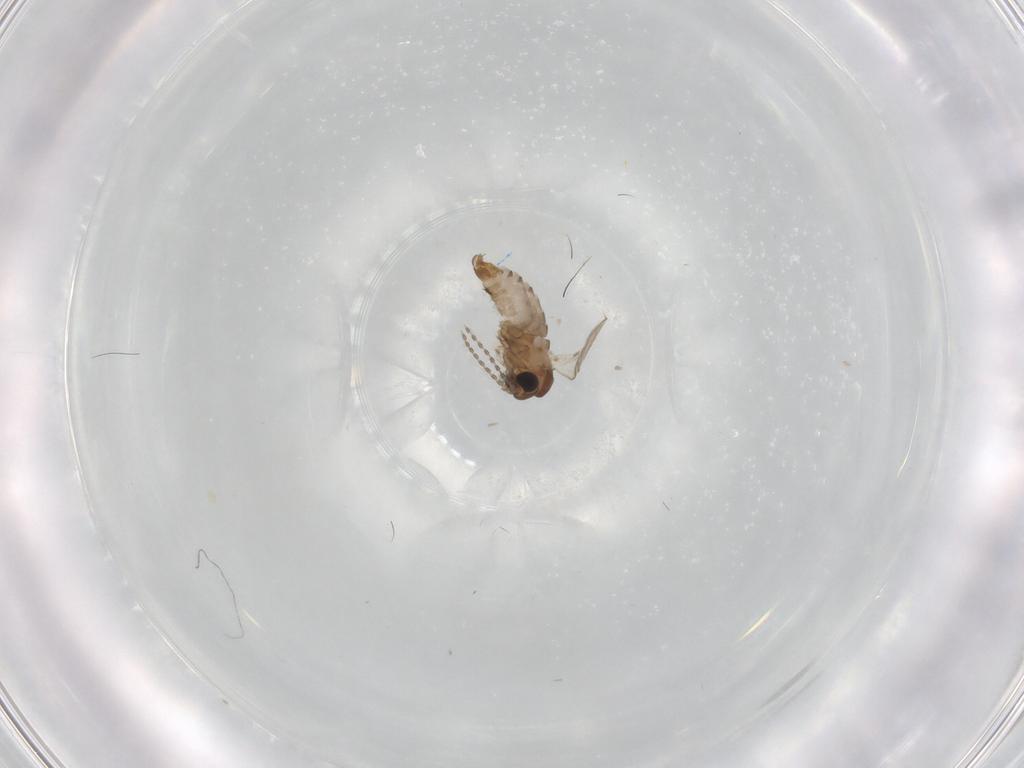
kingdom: Animalia
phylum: Arthropoda
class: Insecta
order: Diptera
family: Psychodidae
